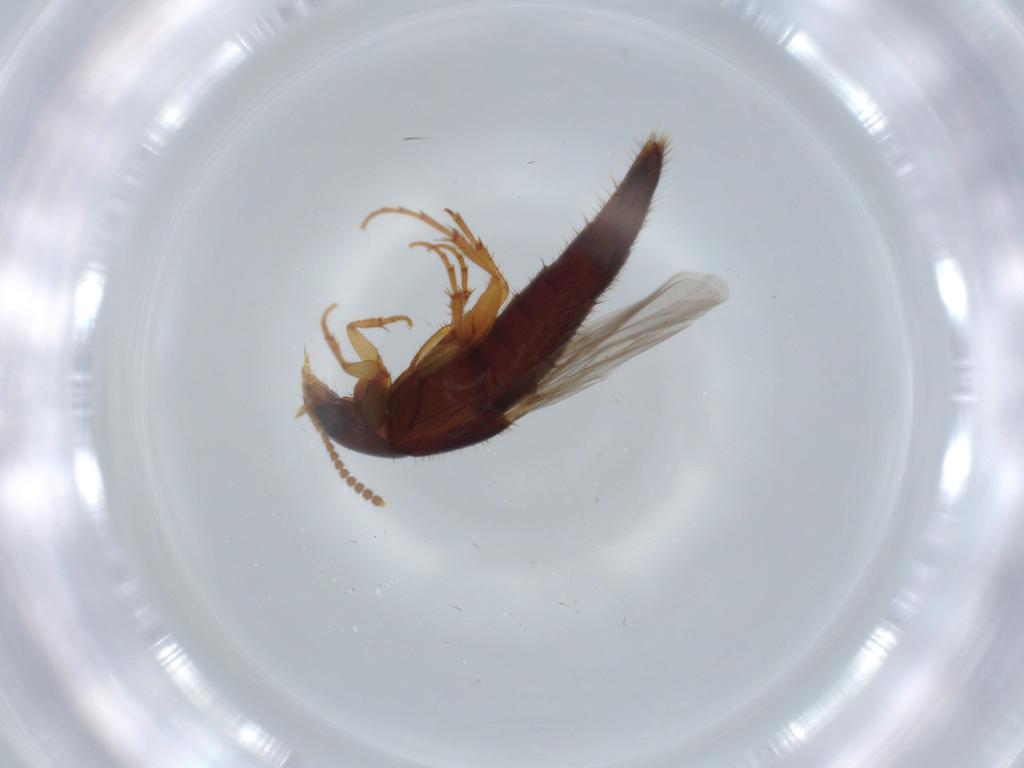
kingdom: Animalia
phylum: Arthropoda
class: Insecta
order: Coleoptera
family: Staphylinidae
